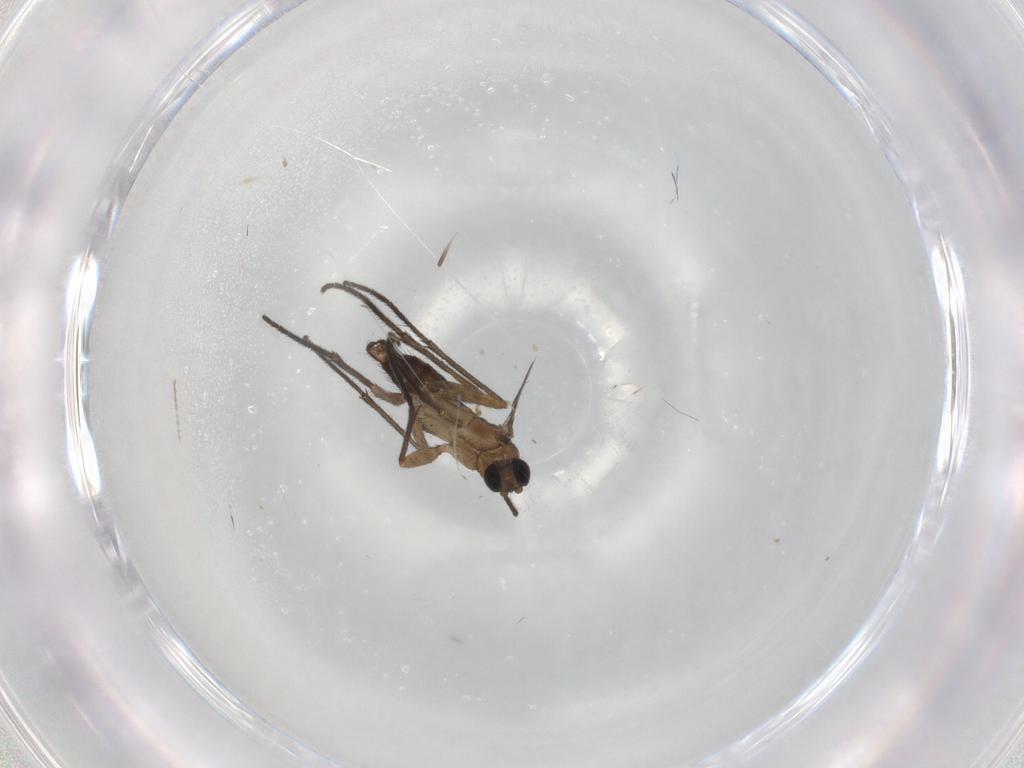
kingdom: Animalia
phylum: Arthropoda
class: Insecta
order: Diptera
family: Sciaridae
